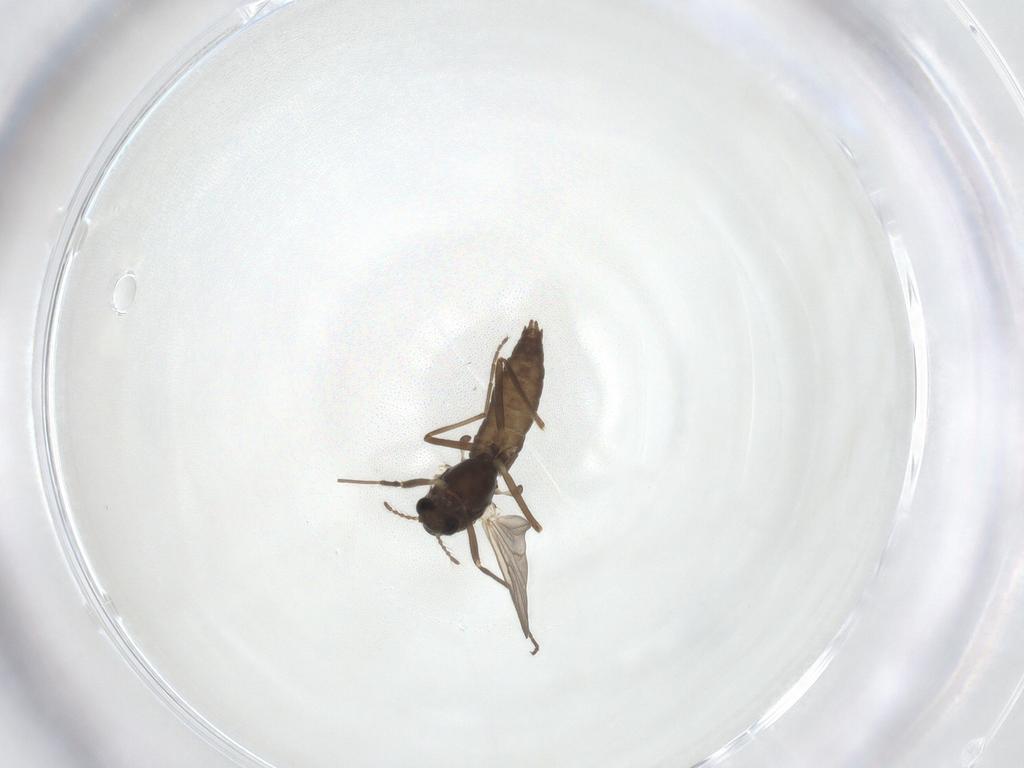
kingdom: Animalia
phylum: Arthropoda
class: Insecta
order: Diptera
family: Chironomidae
